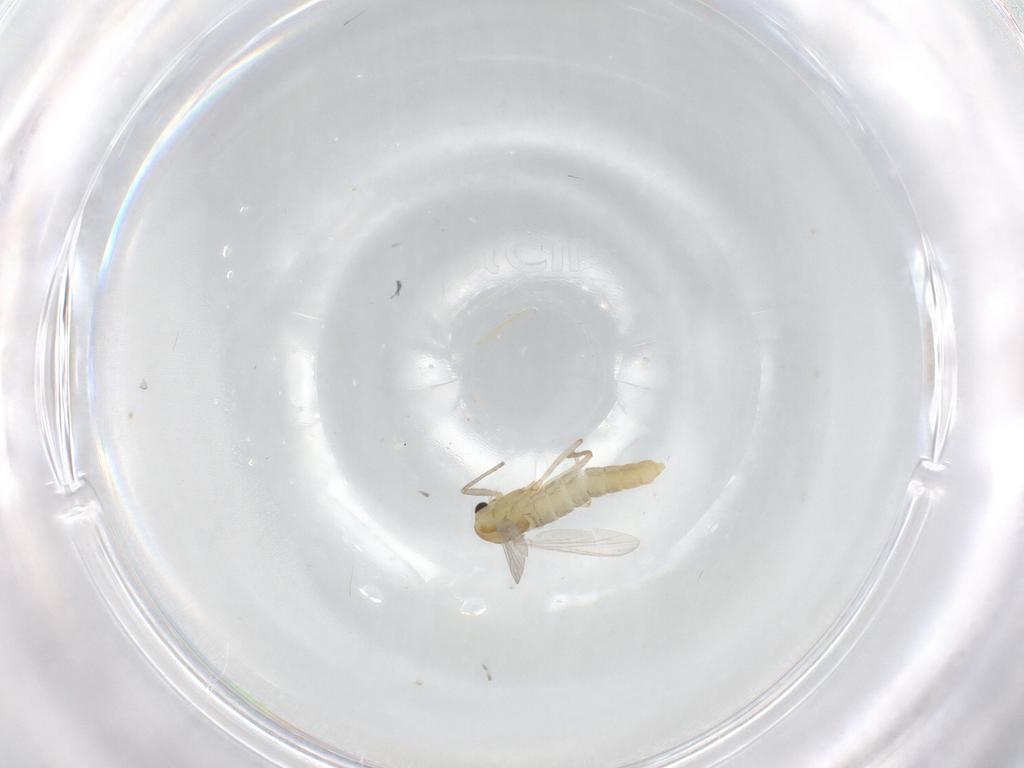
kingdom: Animalia
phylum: Arthropoda
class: Insecta
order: Diptera
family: Chironomidae
